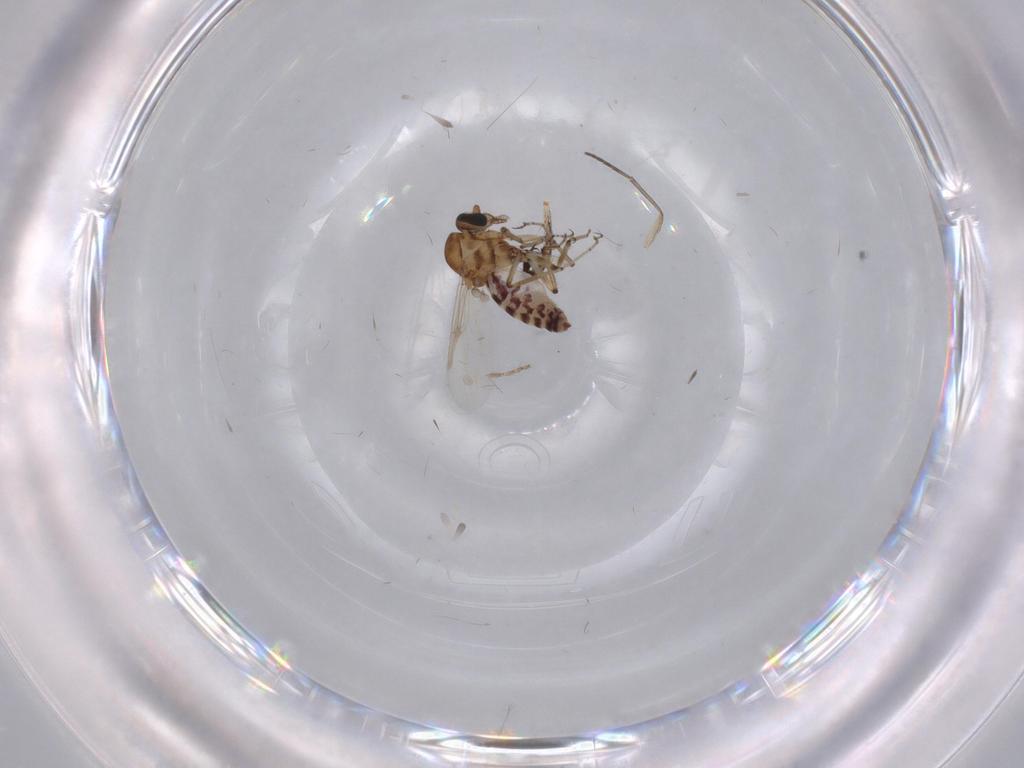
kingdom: Animalia
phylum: Arthropoda
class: Insecta
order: Diptera
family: Ceratopogonidae
